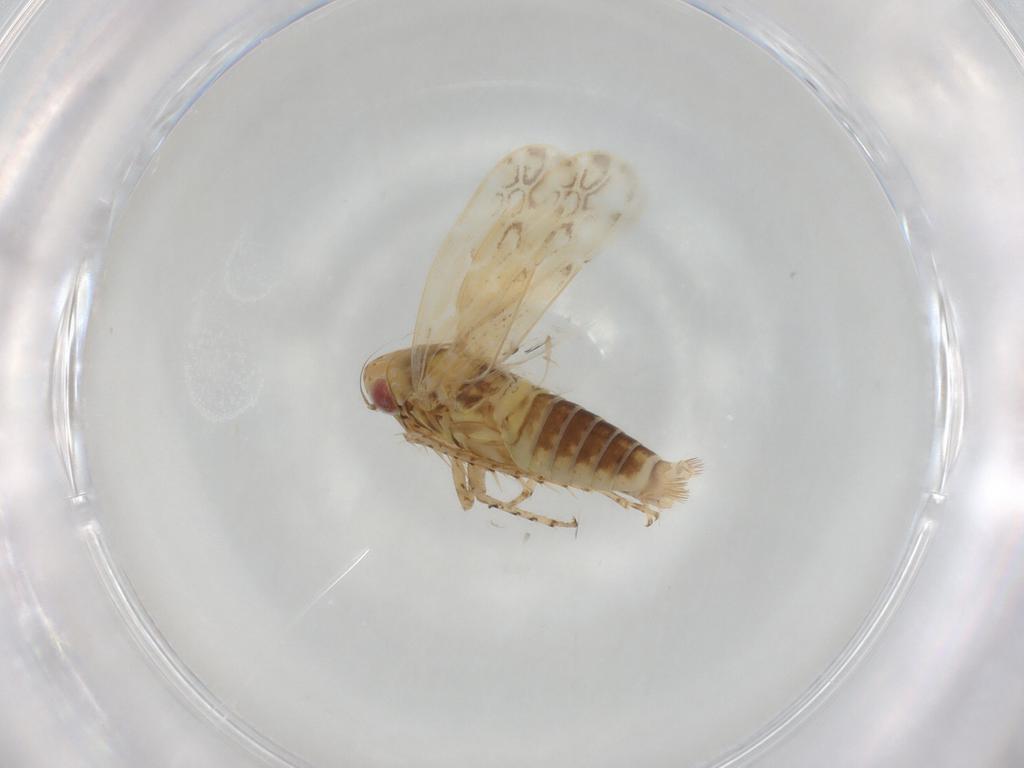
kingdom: Animalia
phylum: Arthropoda
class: Insecta
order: Hemiptera
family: Cicadellidae
